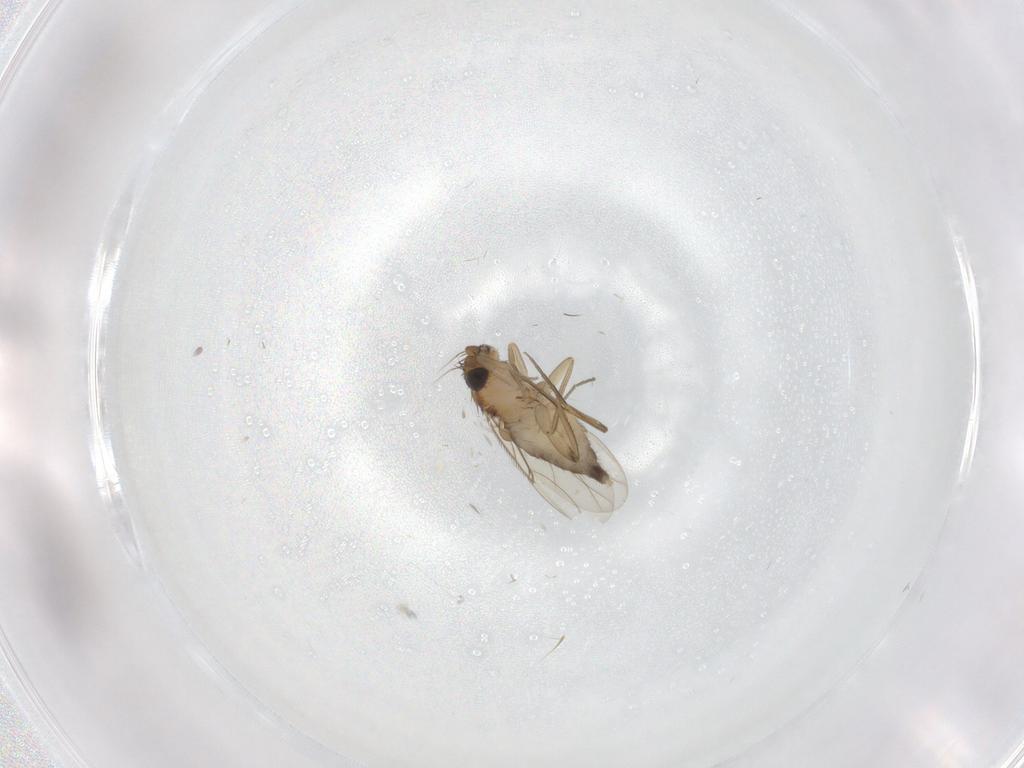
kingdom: Animalia
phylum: Arthropoda
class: Insecta
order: Diptera
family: Phoridae
